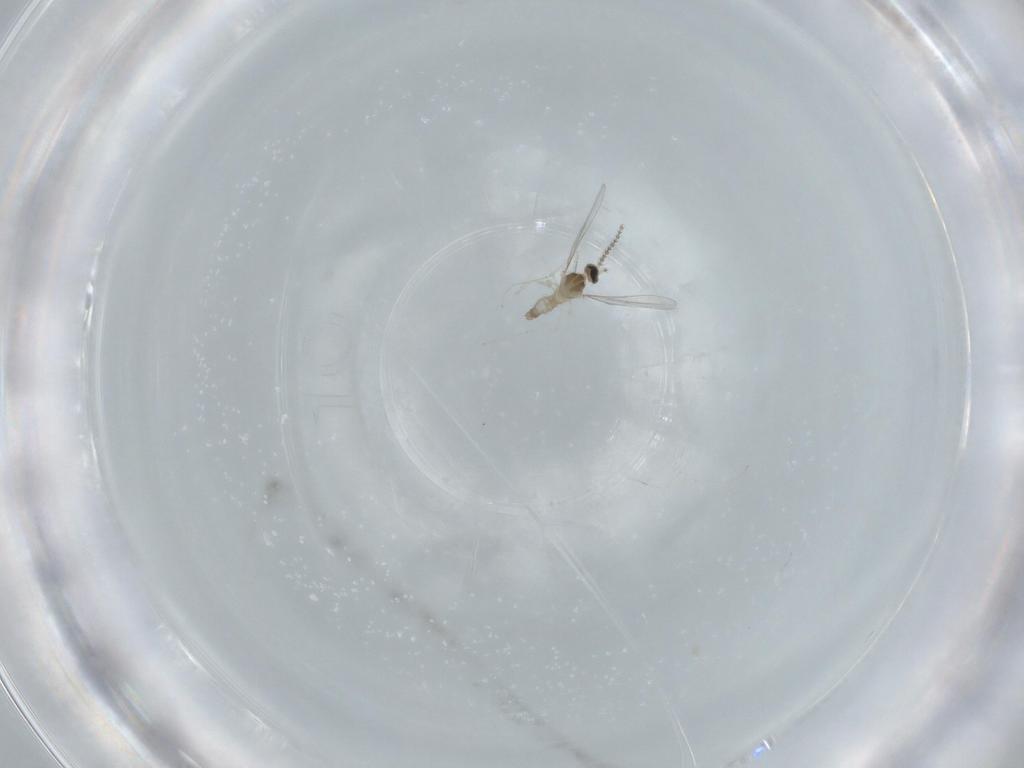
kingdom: Animalia
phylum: Arthropoda
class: Insecta
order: Diptera
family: Cecidomyiidae
